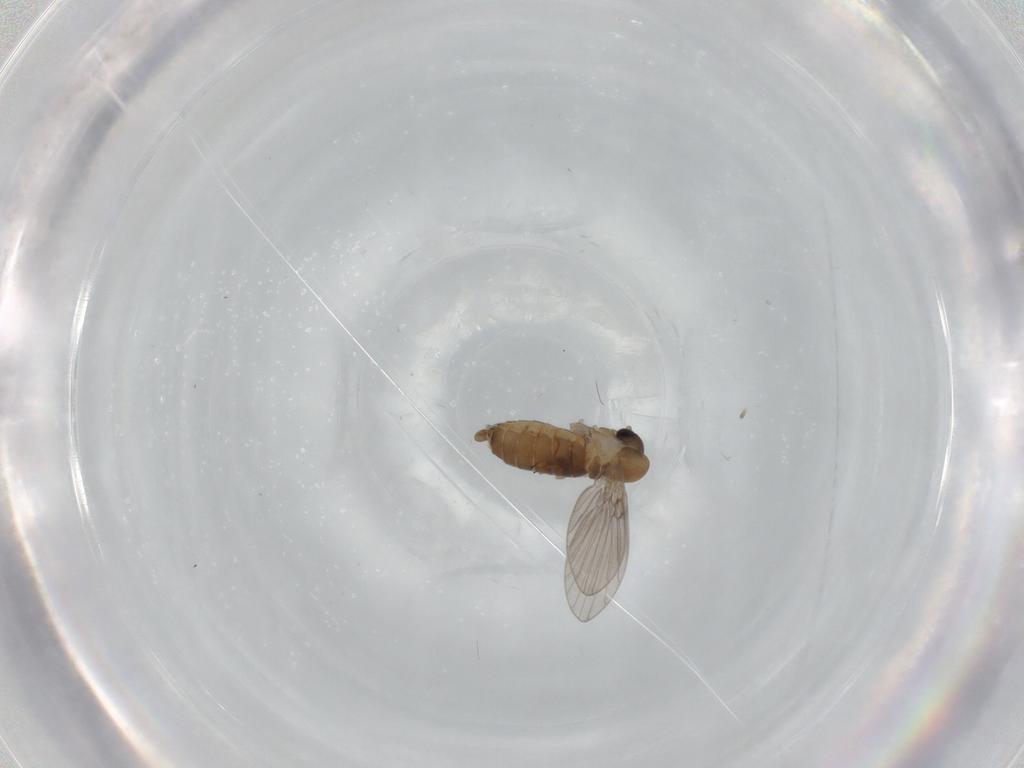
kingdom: Animalia
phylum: Arthropoda
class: Insecta
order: Diptera
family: Psychodidae
